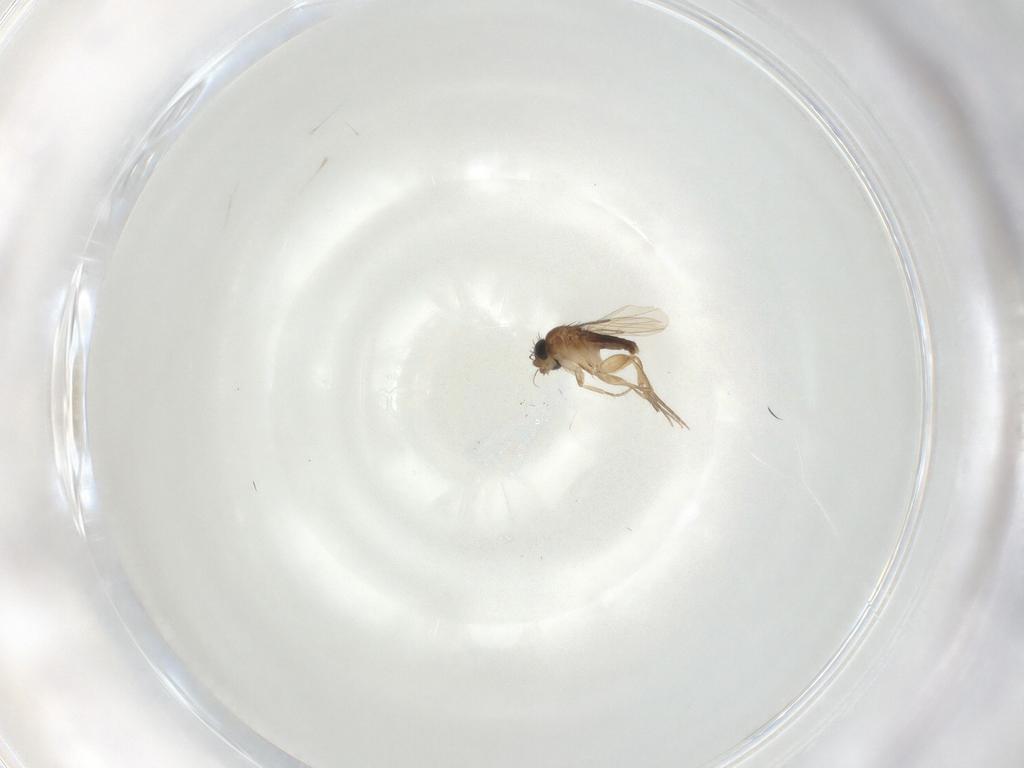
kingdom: Animalia
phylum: Arthropoda
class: Insecta
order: Diptera
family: Phoridae
